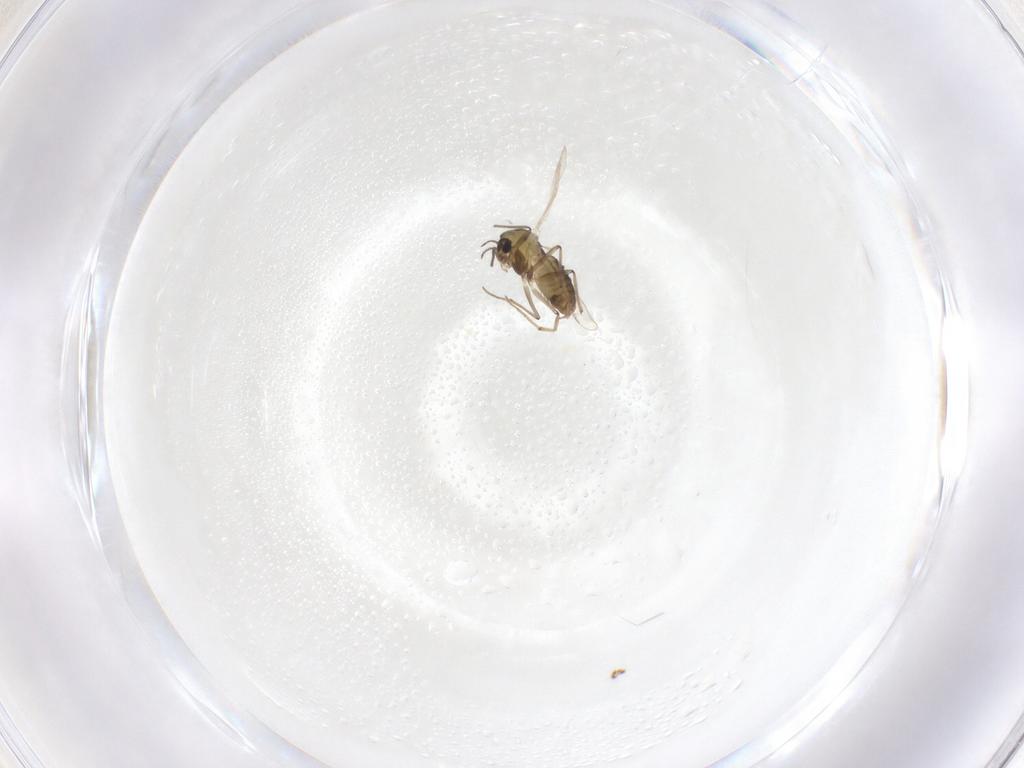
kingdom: Animalia
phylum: Arthropoda
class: Insecta
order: Diptera
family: Chironomidae
